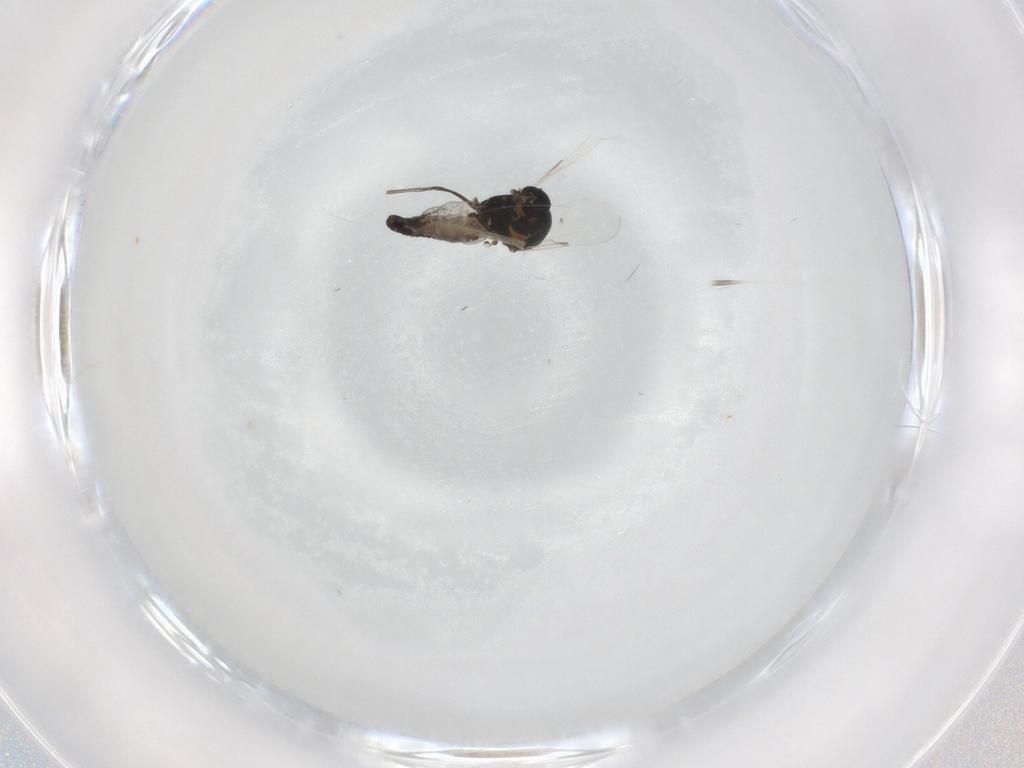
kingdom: Animalia
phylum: Arthropoda
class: Insecta
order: Diptera
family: Ceratopogonidae
